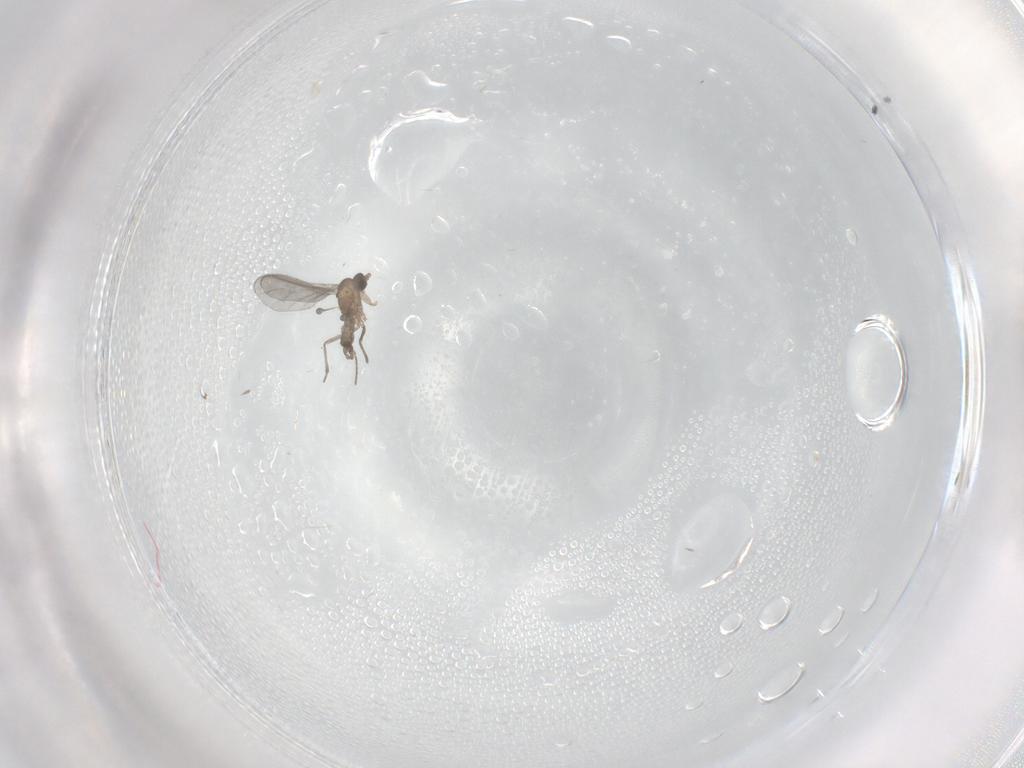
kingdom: Animalia
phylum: Arthropoda
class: Insecta
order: Diptera
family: Sciaridae
